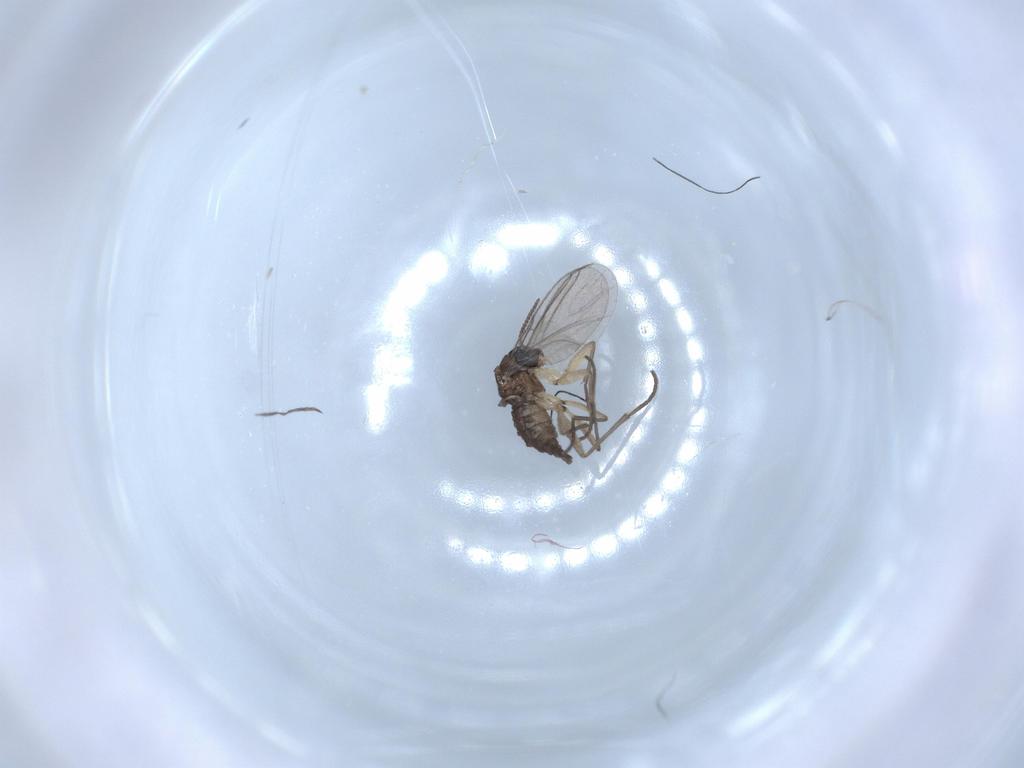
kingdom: Animalia
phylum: Arthropoda
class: Insecta
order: Diptera
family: Sciaridae
